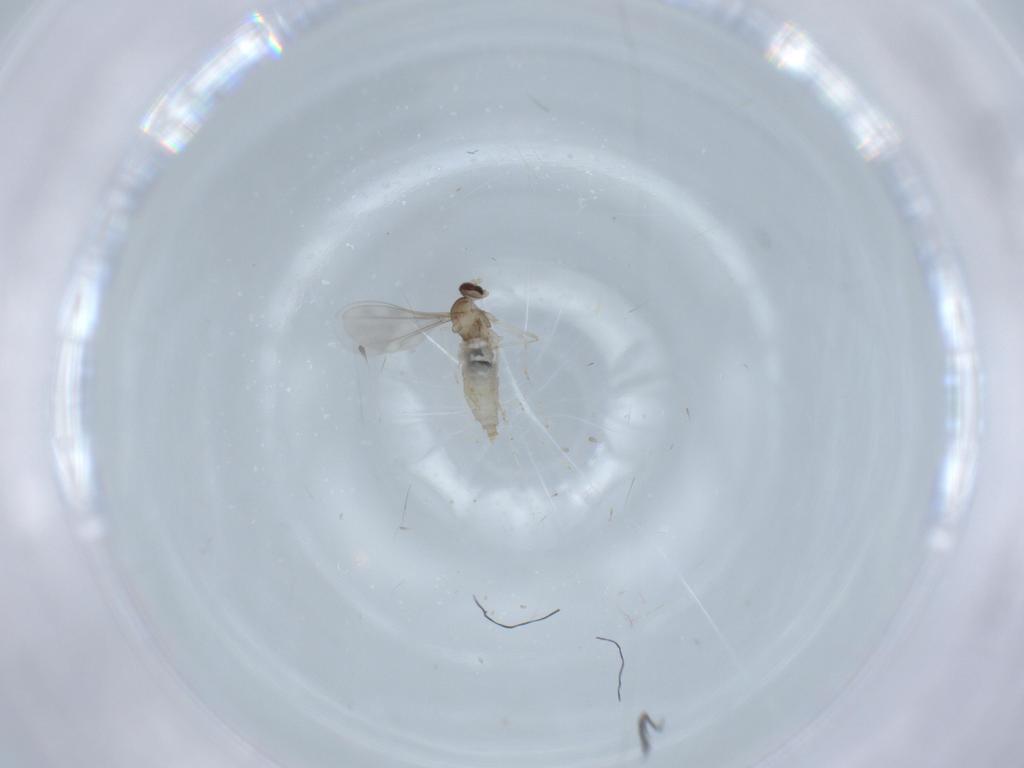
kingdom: Animalia
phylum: Arthropoda
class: Insecta
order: Diptera
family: Stratiomyidae
